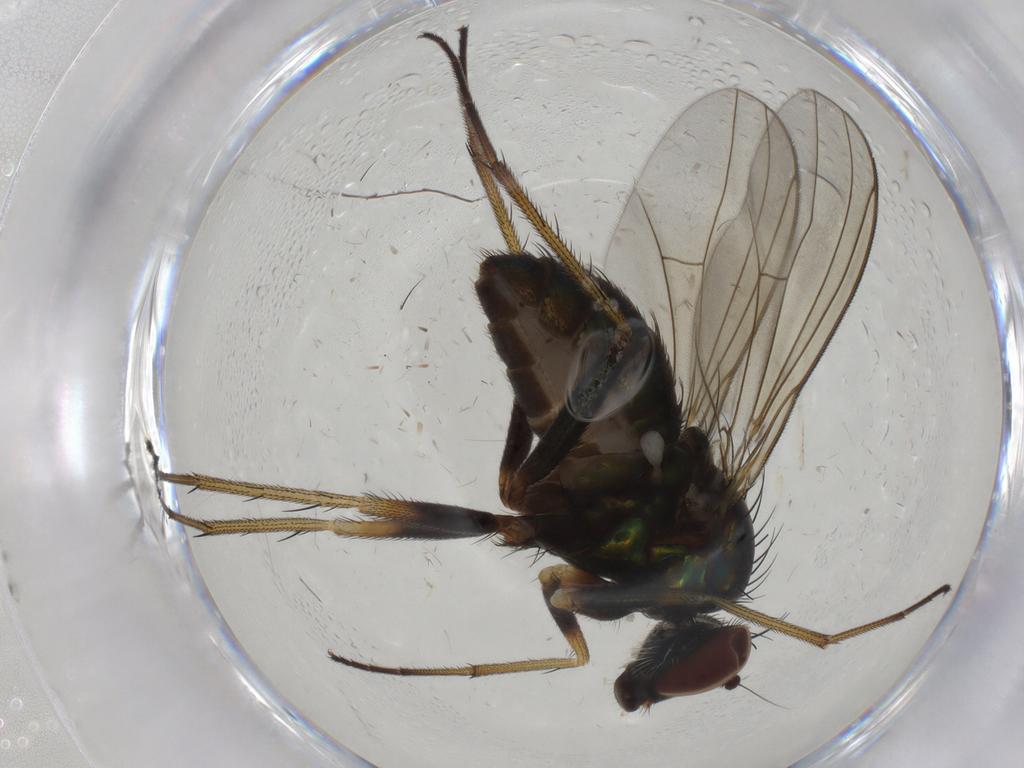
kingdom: Animalia
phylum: Arthropoda
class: Insecta
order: Diptera
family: Dolichopodidae
